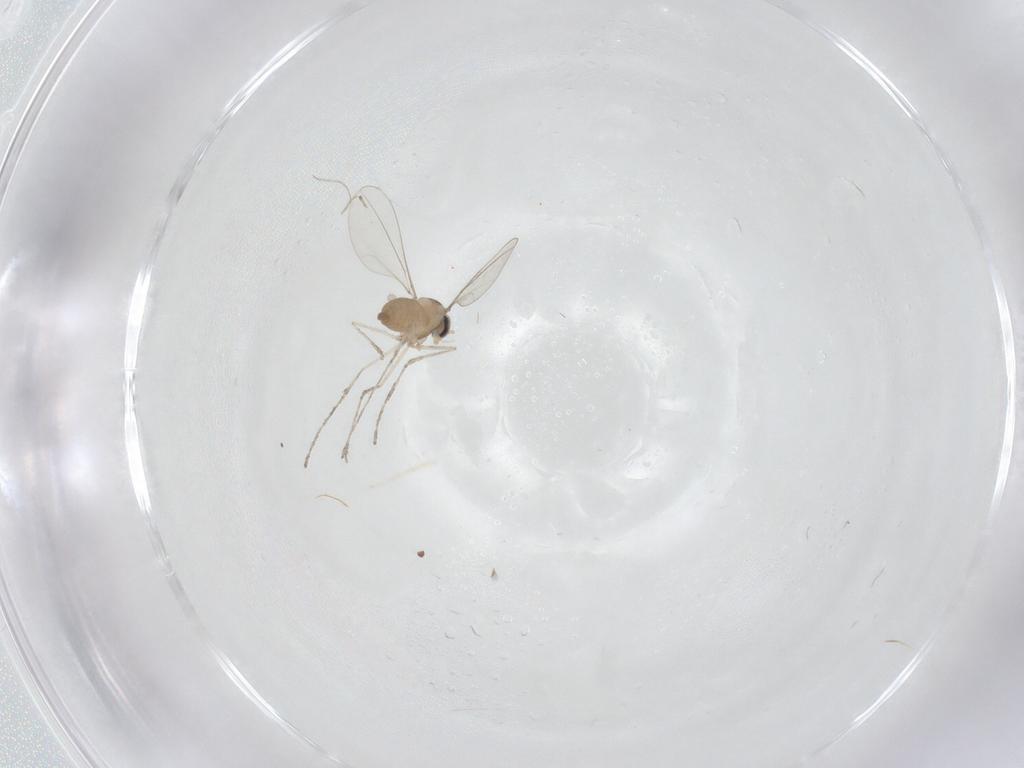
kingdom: Animalia
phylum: Arthropoda
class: Insecta
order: Diptera
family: Cecidomyiidae
